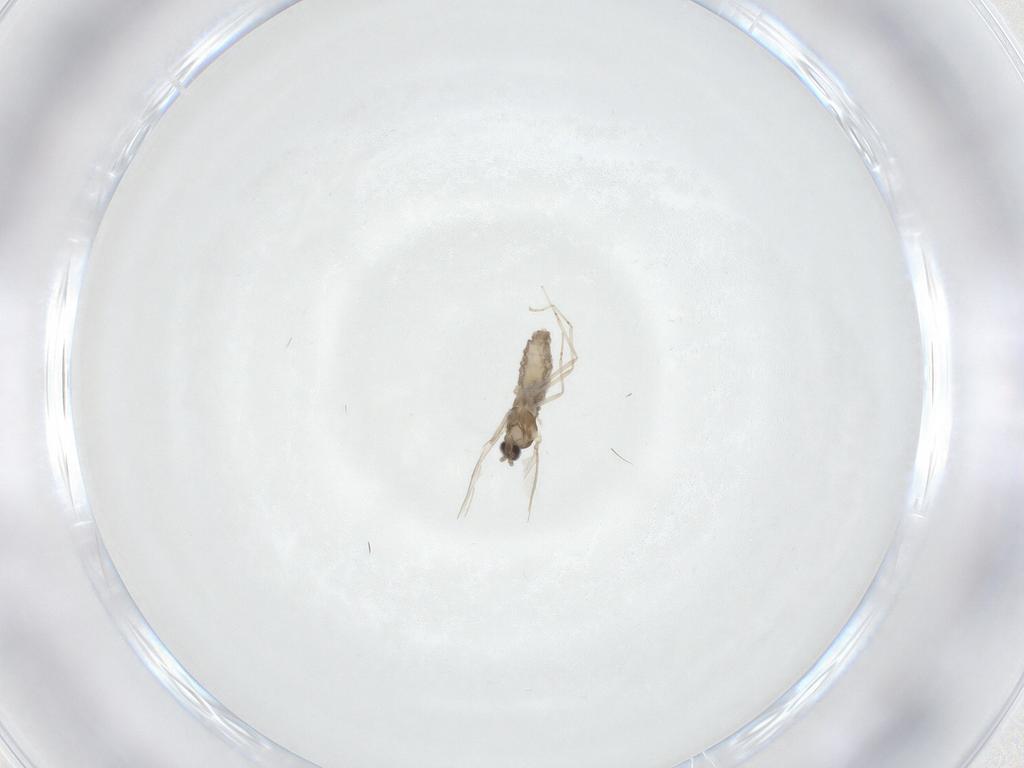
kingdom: Animalia
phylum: Arthropoda
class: Insecta
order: Diptera
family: Cecidomyiidae
